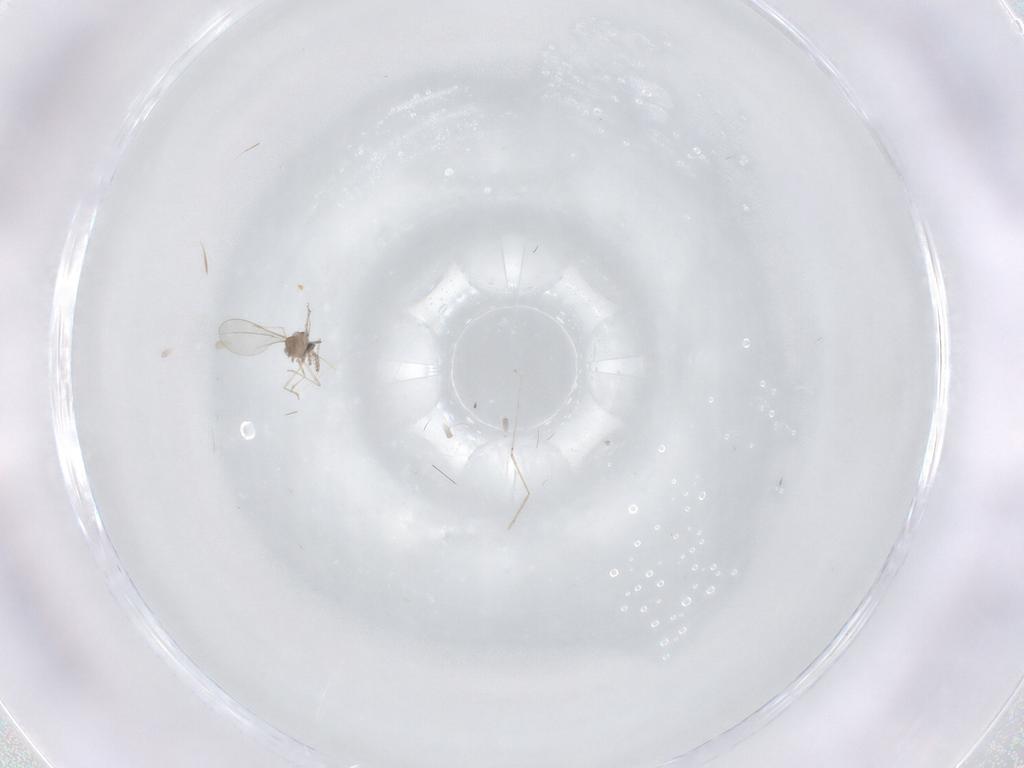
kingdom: Animalia
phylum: Arthropoda
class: Insecta
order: Diptera
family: Cecidomyiidae
